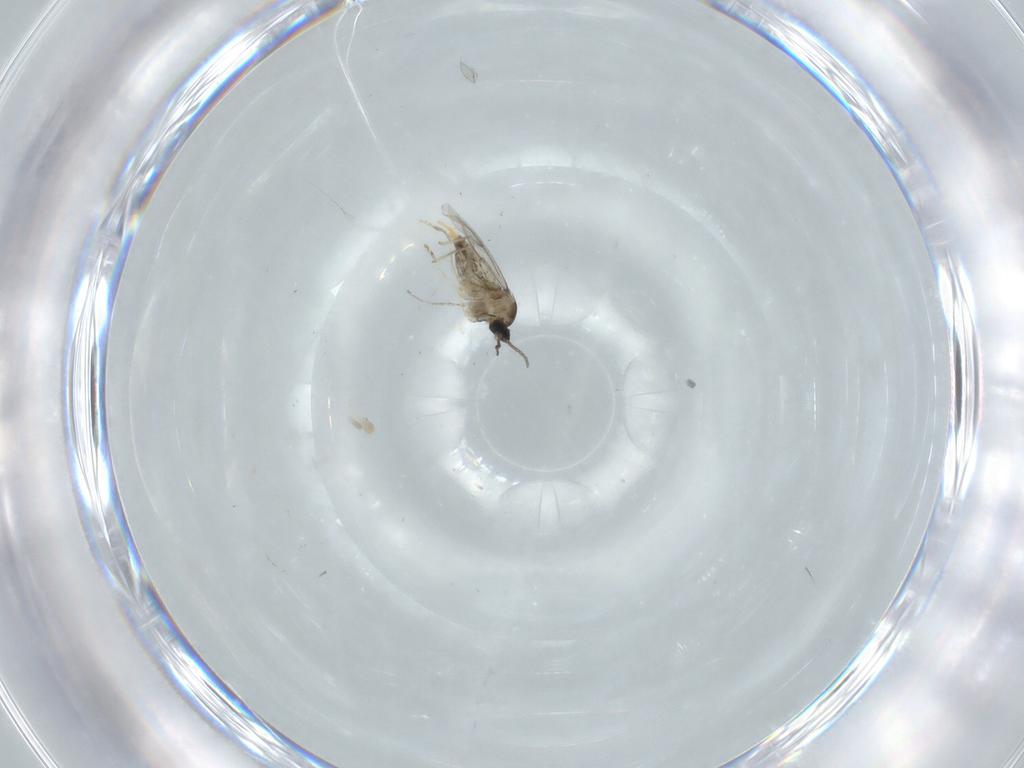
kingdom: Animalia
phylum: Arthropoda
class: Insecta
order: Diptera
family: Cecidomyiidae
